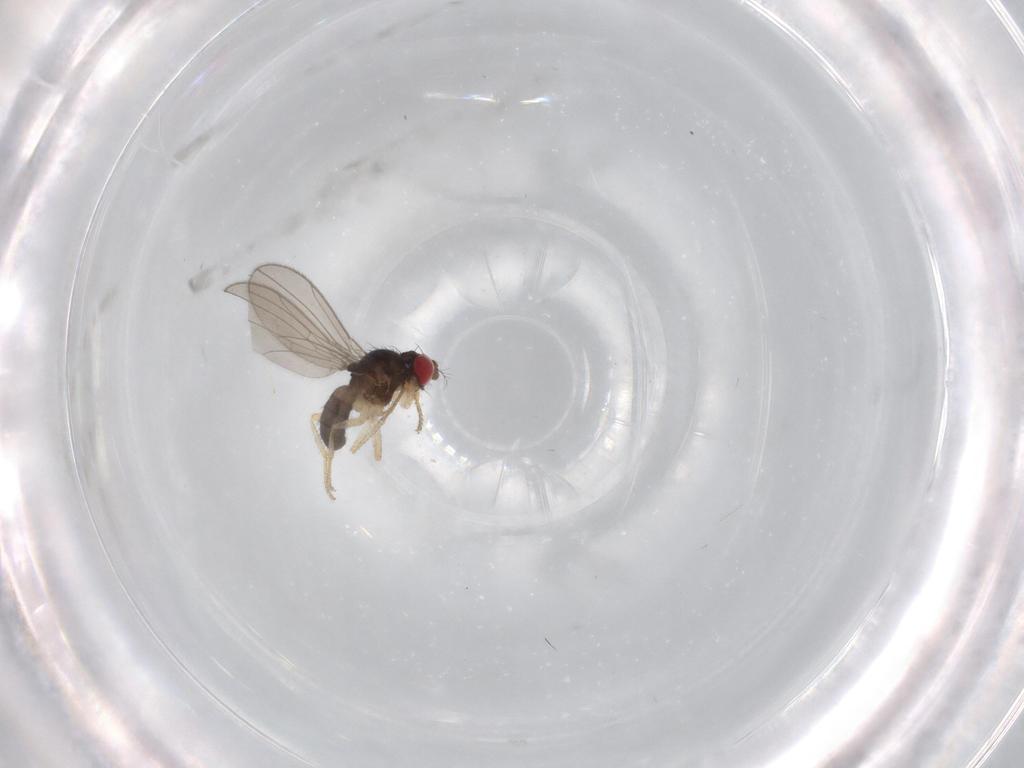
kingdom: Animalia
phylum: Arthropoda
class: Insecta
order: Diptera
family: Drosophilidae
